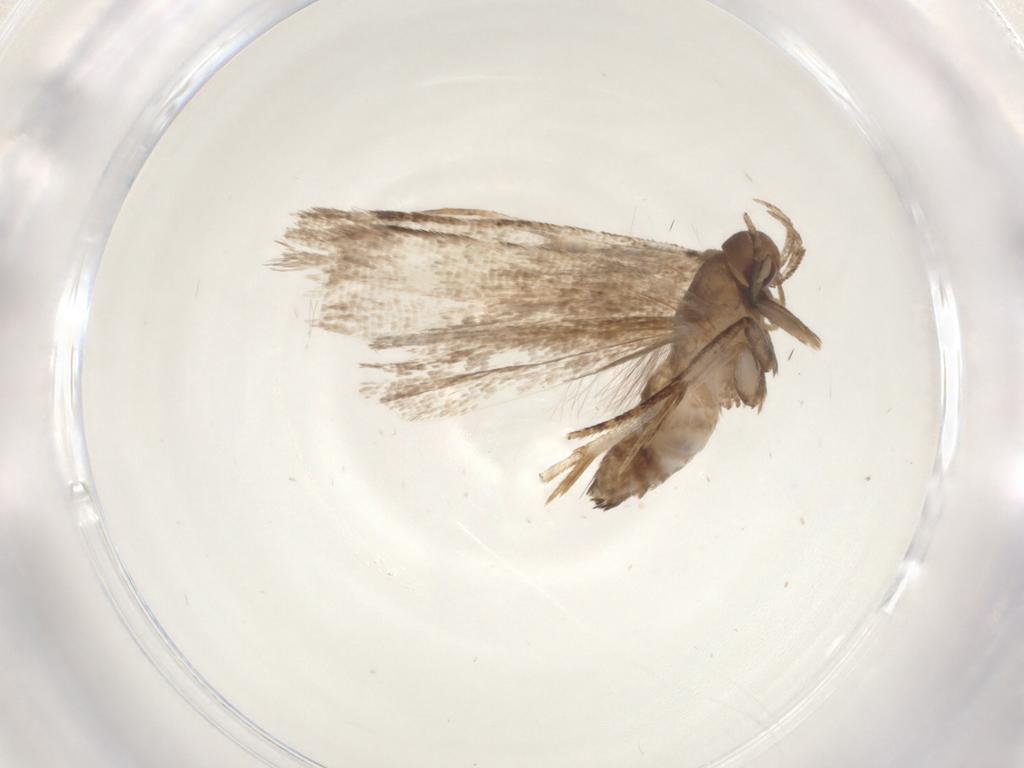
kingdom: Animalia
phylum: Arthropoda
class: Insecta
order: Lepidoptera
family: Gelechiidae
